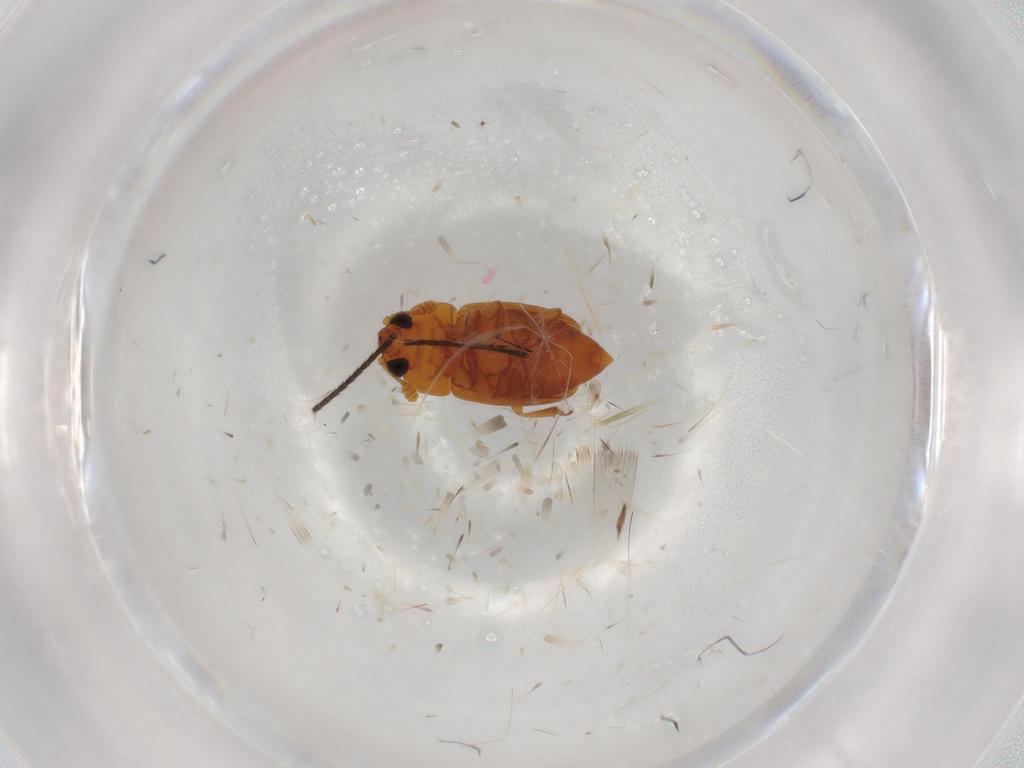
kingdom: Animalia
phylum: Arthropoda
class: Insecta
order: Coleoptera
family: Nitidulidae
